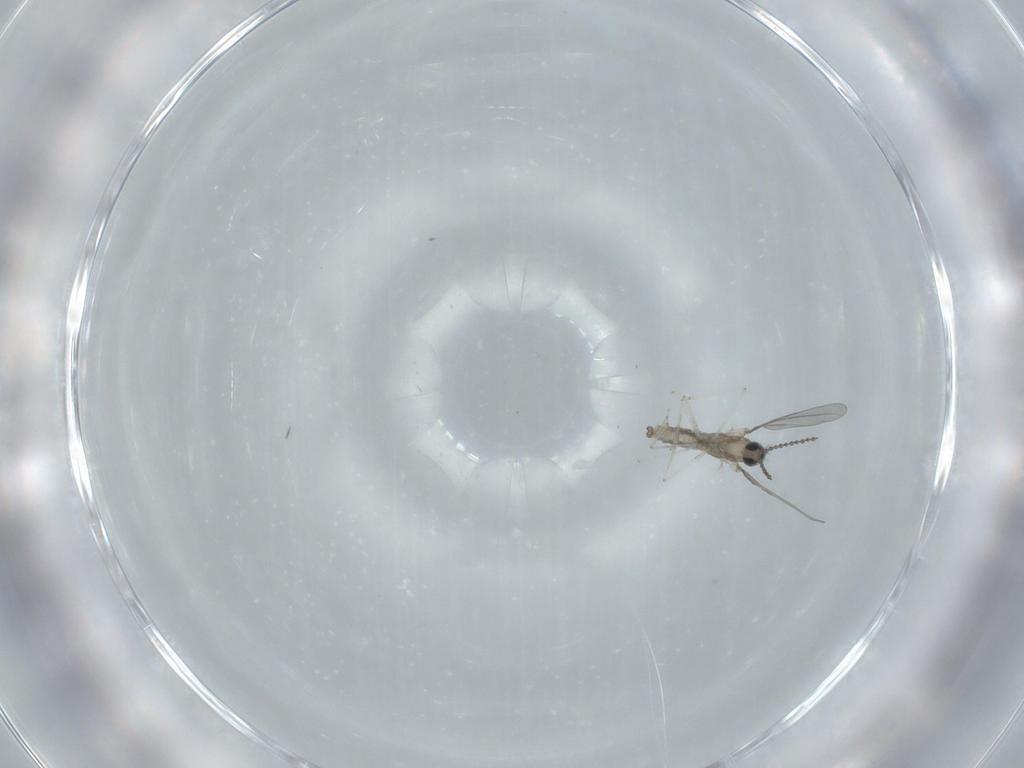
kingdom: Animalia
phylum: Arthropoda
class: Insecta
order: Diptera
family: Cecidomyiidae
